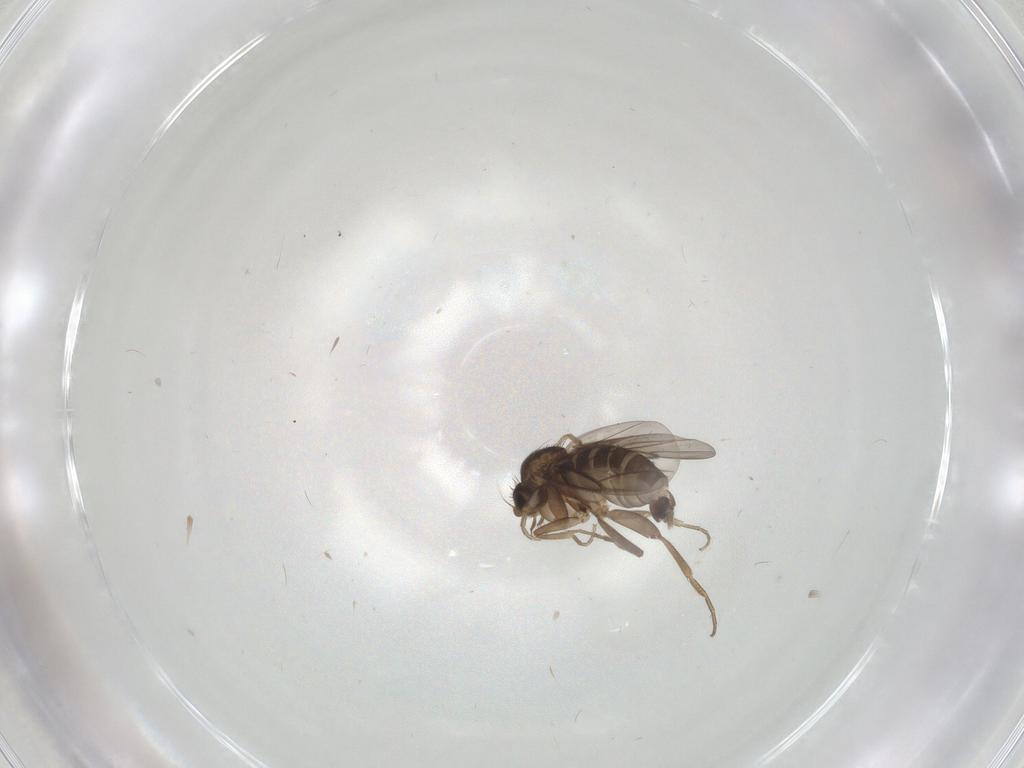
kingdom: Animalia
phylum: Arthropoda
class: Insecta
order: Diptera
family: Phoridae
